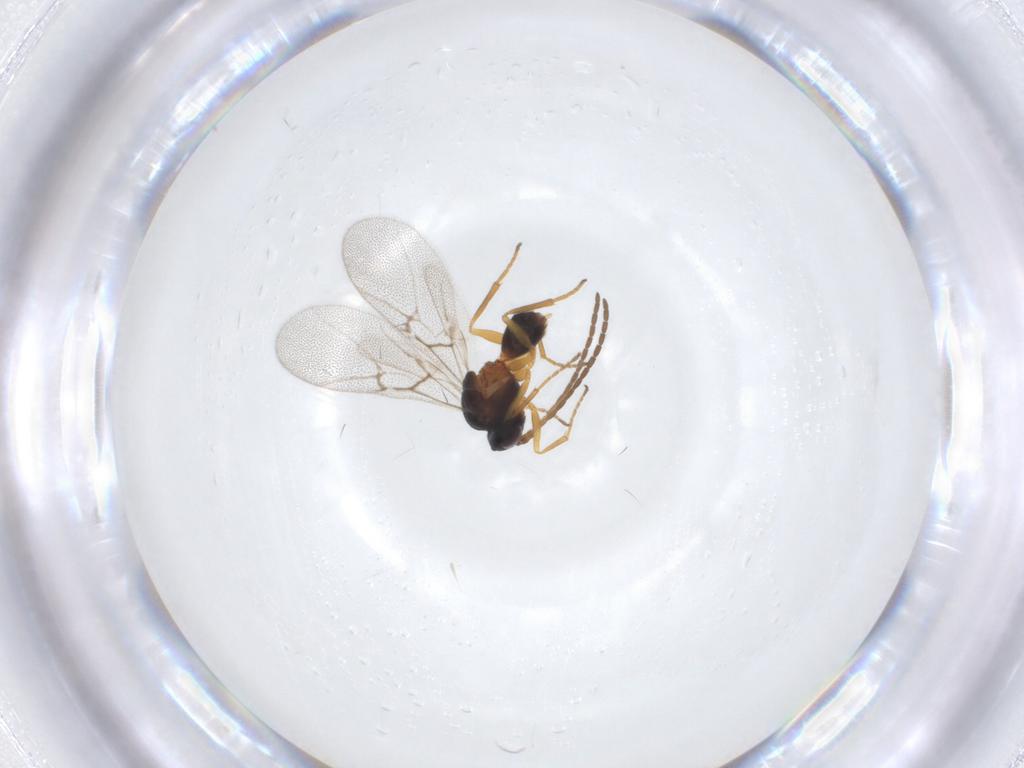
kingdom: Animalia
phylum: Arthropoda
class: Insecta
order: Hymenoptera
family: Cynipidae
